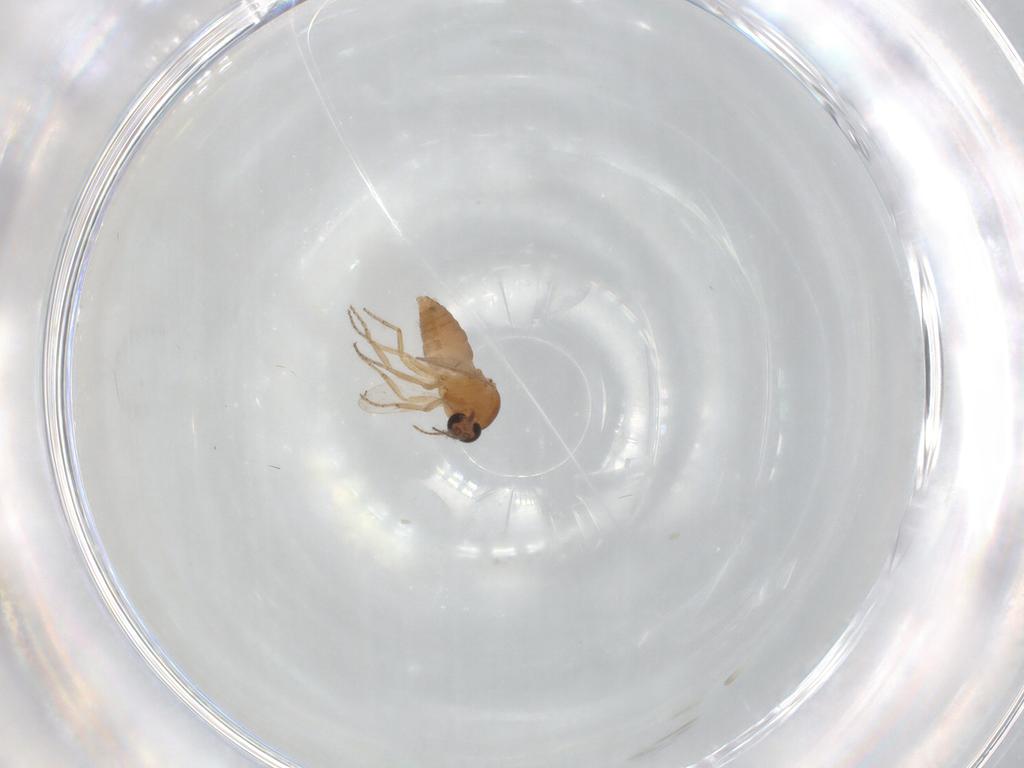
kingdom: Animalia
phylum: Arthropoda
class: Insecta
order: Diptera
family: Ceratopogonidae
